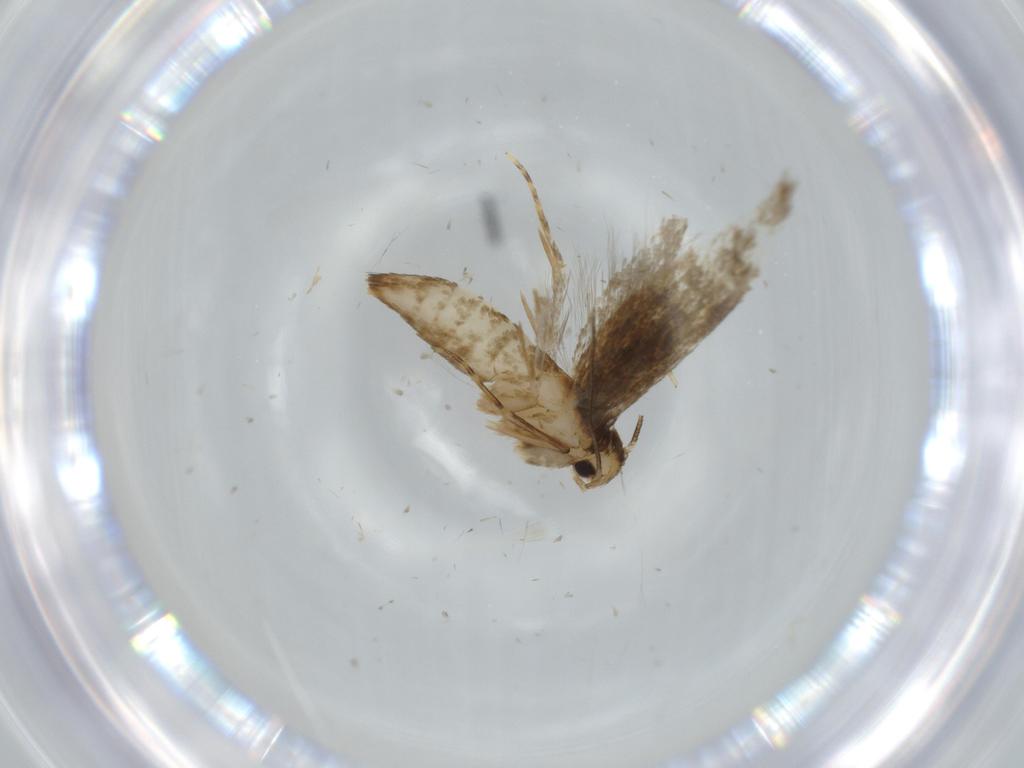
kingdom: Animalia
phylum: Arthropoda
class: Insecta
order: Lepidoptera
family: Tineidae
